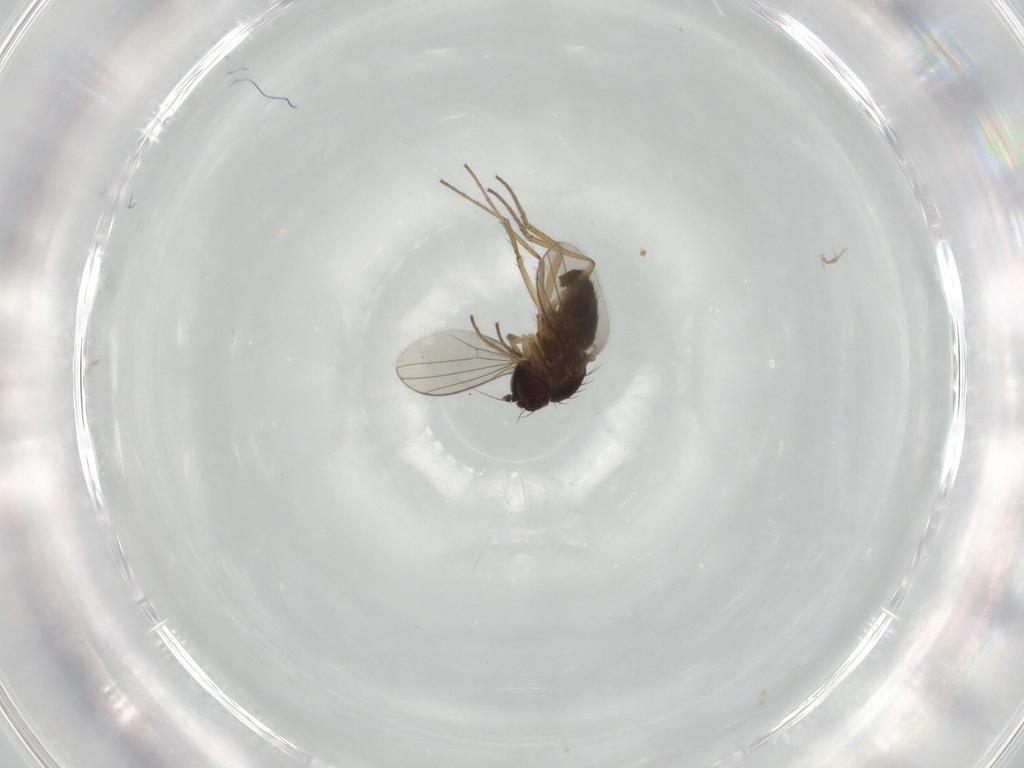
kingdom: Animalia
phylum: Arthropoda
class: Insecta
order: Diptera
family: Dolichopodidae
